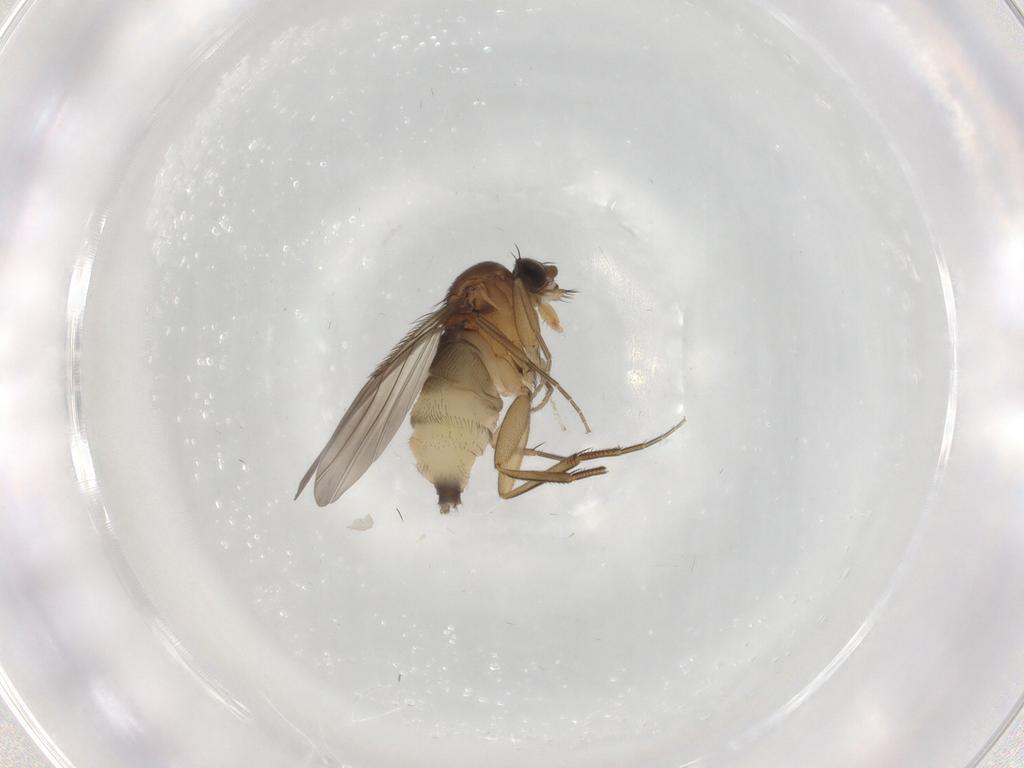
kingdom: Animalia
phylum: Arthropoda
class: Insecta
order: Diptera
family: Phoridae
